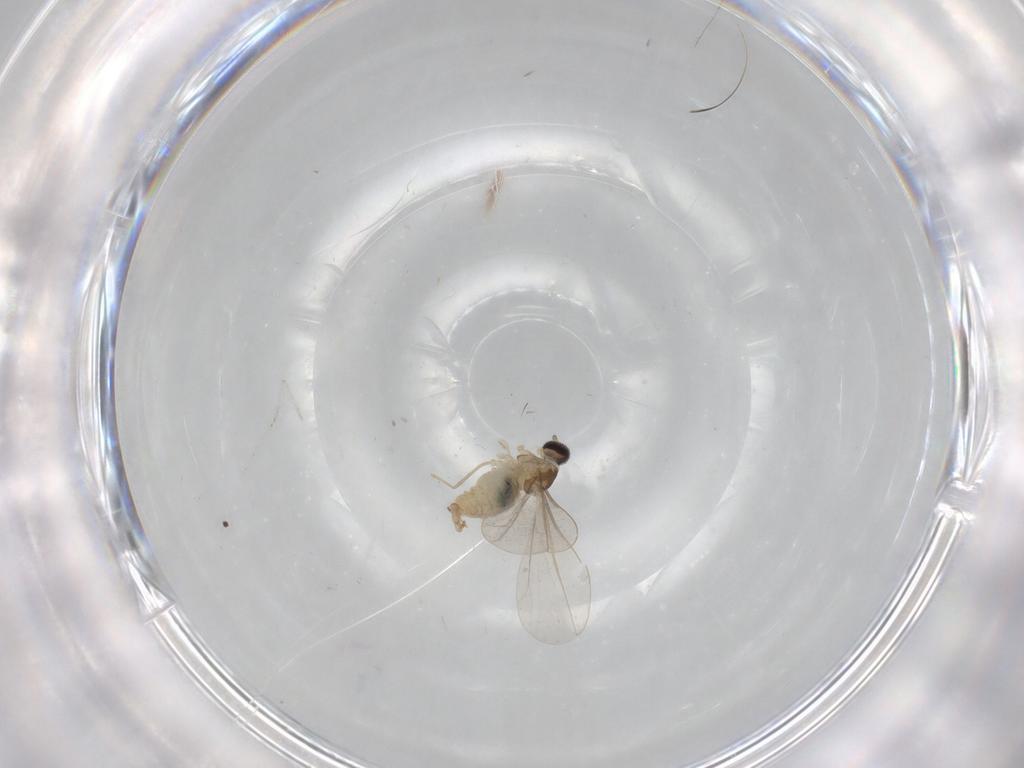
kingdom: Animalia
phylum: Arthropoda
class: Insecta
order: Diptera
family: Cecidomyiidae
